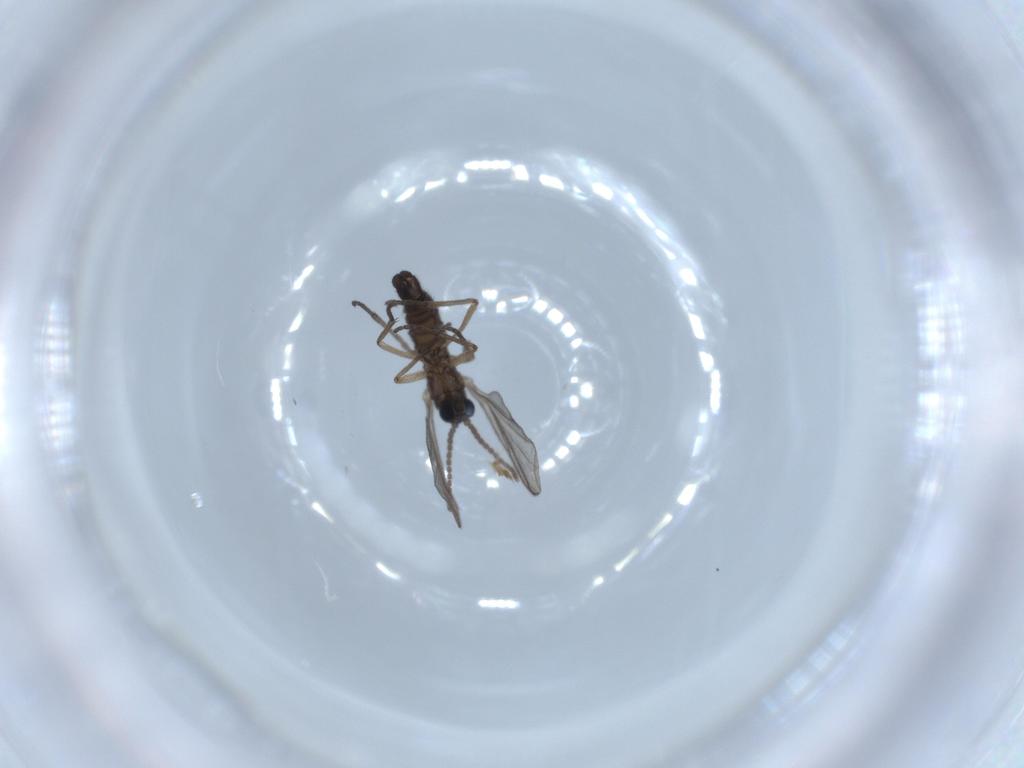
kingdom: Animalia
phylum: Arthropoda
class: Insecta
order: Diptera
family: Sciaridae
